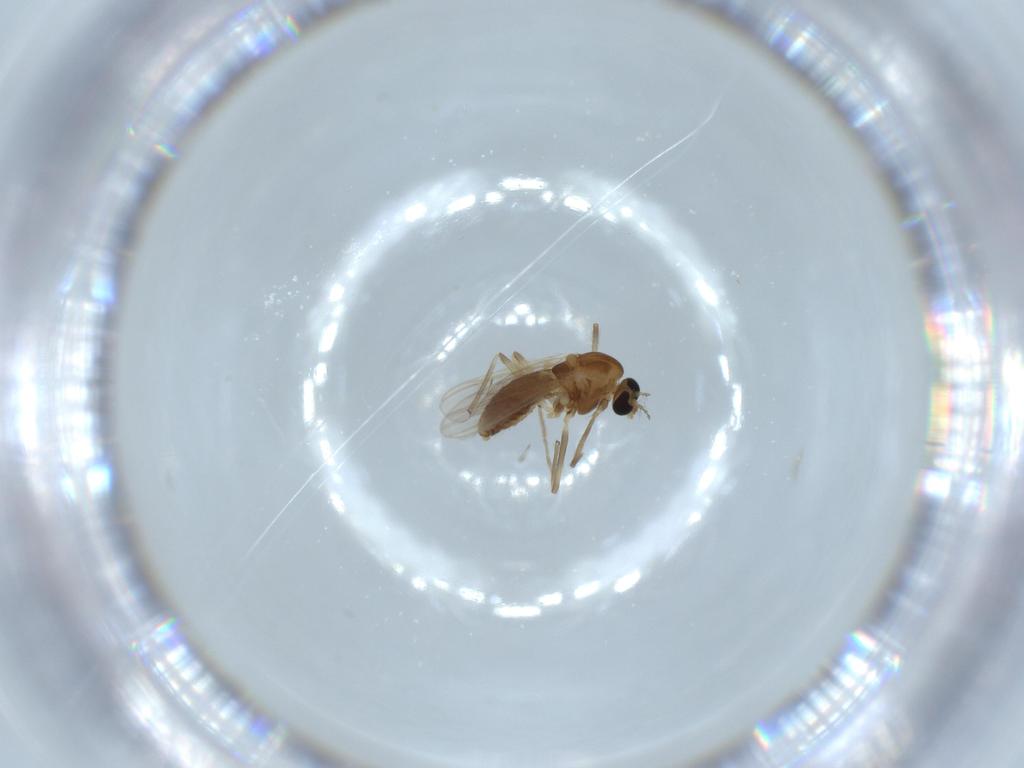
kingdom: Animalia
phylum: Arthropoda
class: Insecta
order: Diptera
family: Chironomidae
